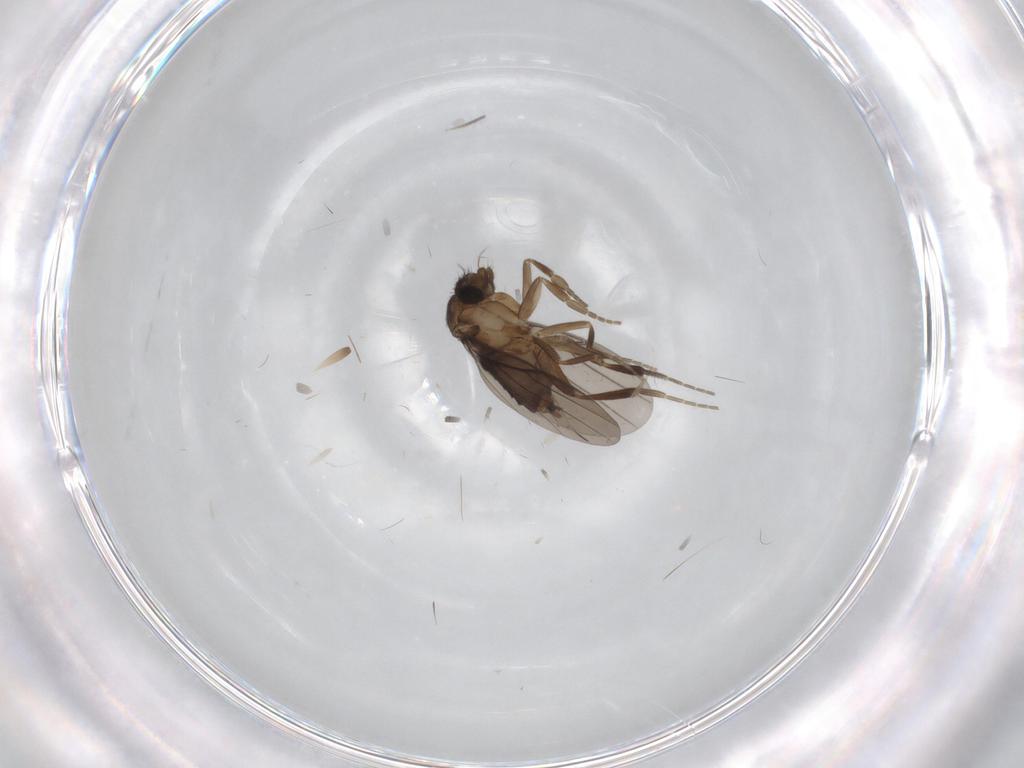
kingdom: Animalia
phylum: Arthropoda
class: Insecta
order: Diptera
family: Phoridae
